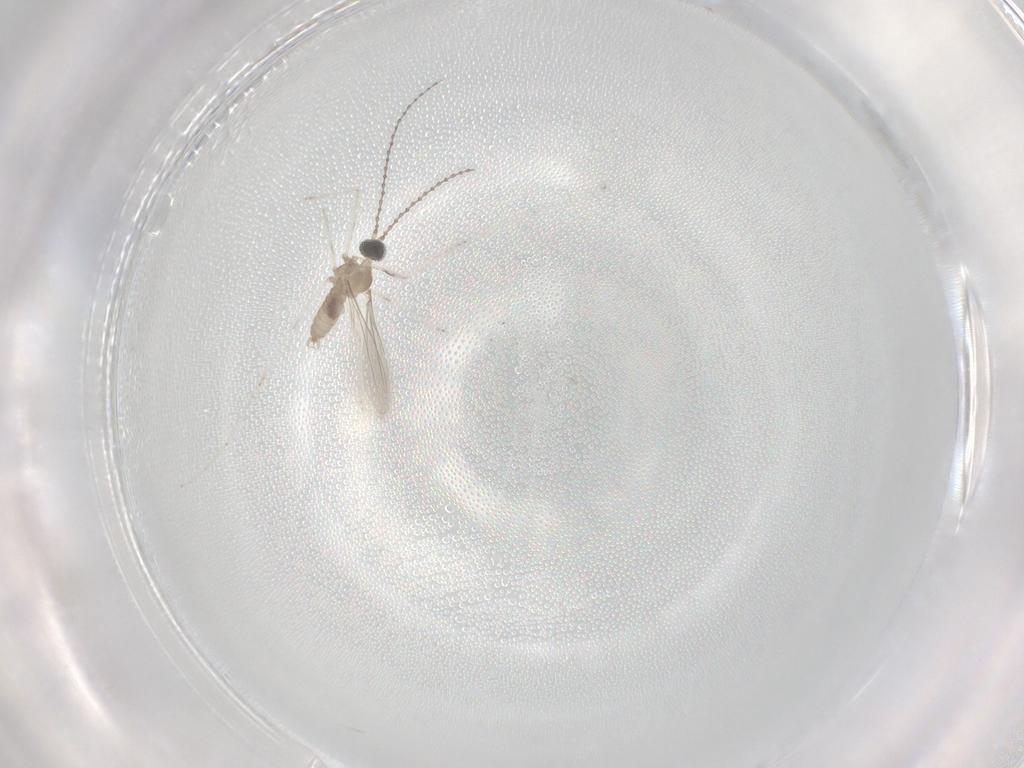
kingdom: Animalia
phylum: Arthropoda
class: Insecta
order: Diptera
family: Cecidomyiidae
